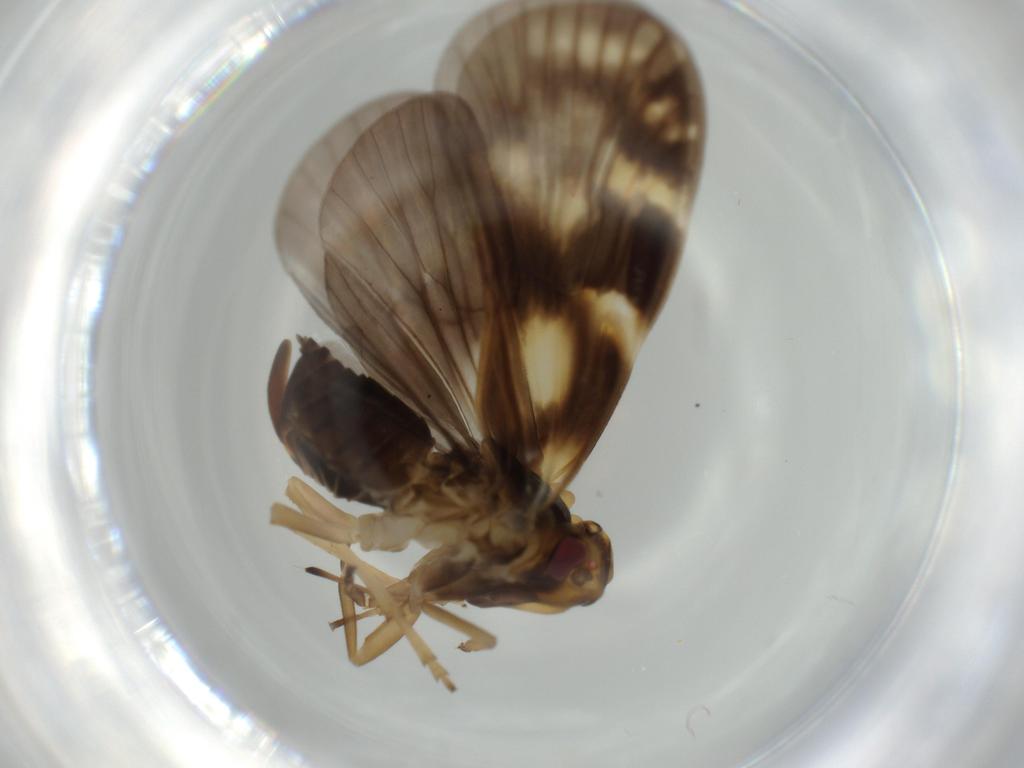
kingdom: Animalia
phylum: Arthropoda
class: Insecta
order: Hemiptera
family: Cixiidae
